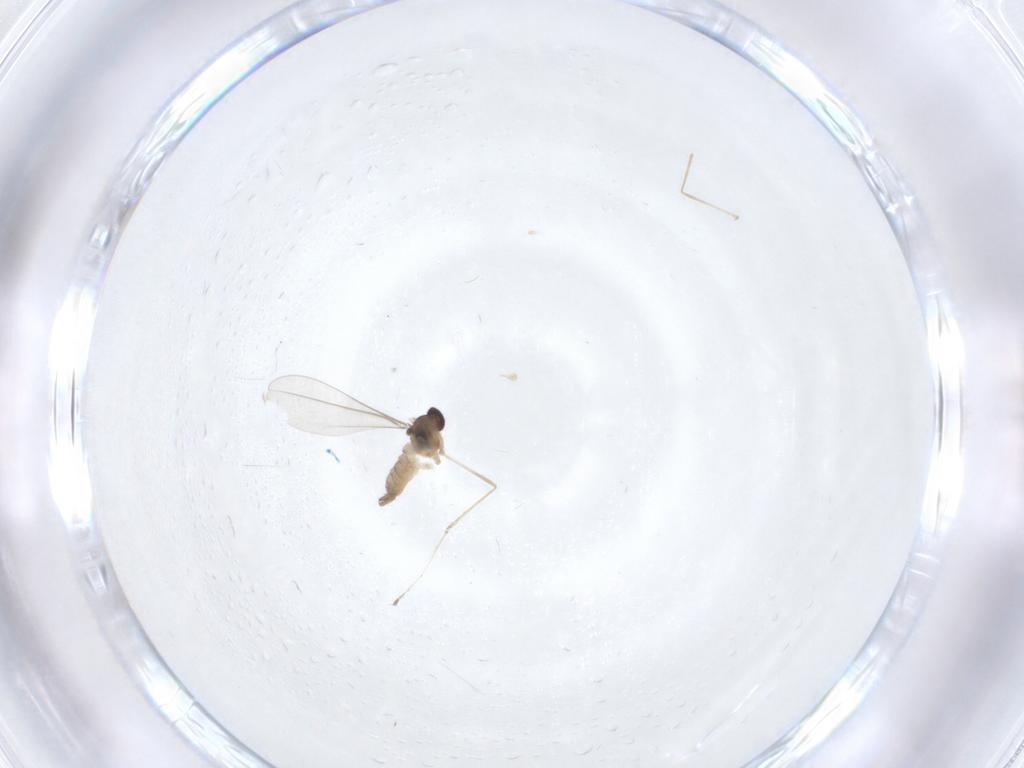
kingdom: Animalia
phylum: Arthropoda
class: Insecta
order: Diptera
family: Cecidomyiidae
